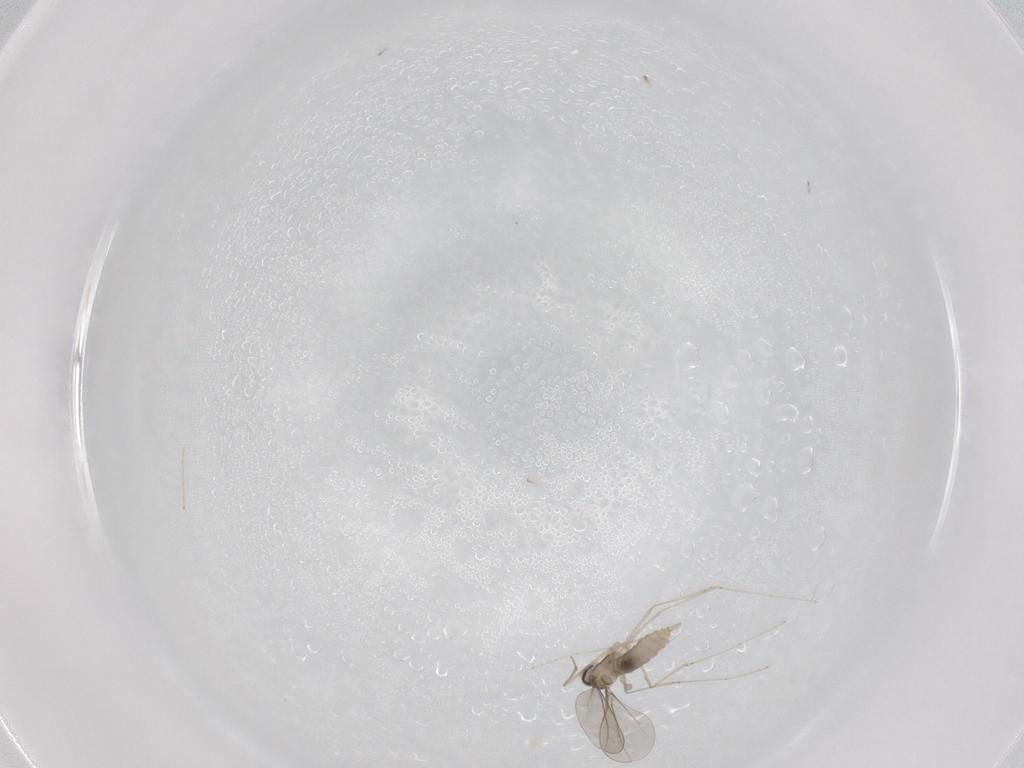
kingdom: Animalia
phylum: Arthropoda
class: Insecta
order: Diptera
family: Cecidomyiidae
